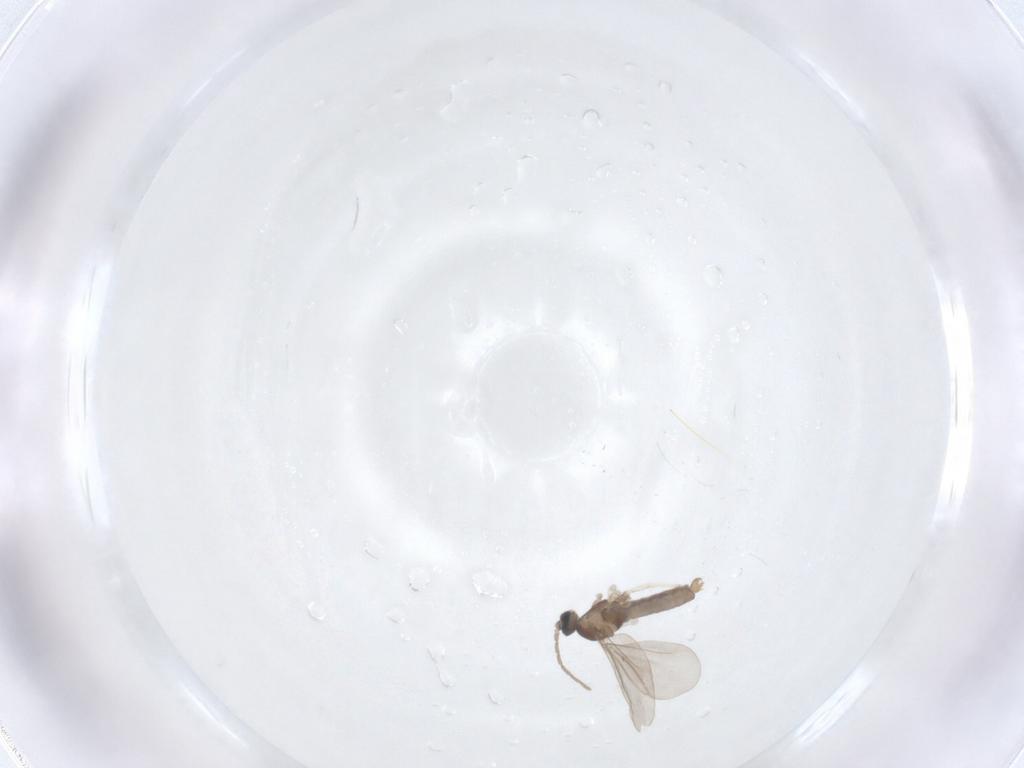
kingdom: Animalia
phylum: Arthropoda
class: Insecta
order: Diptera
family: Cecidomyiidae
